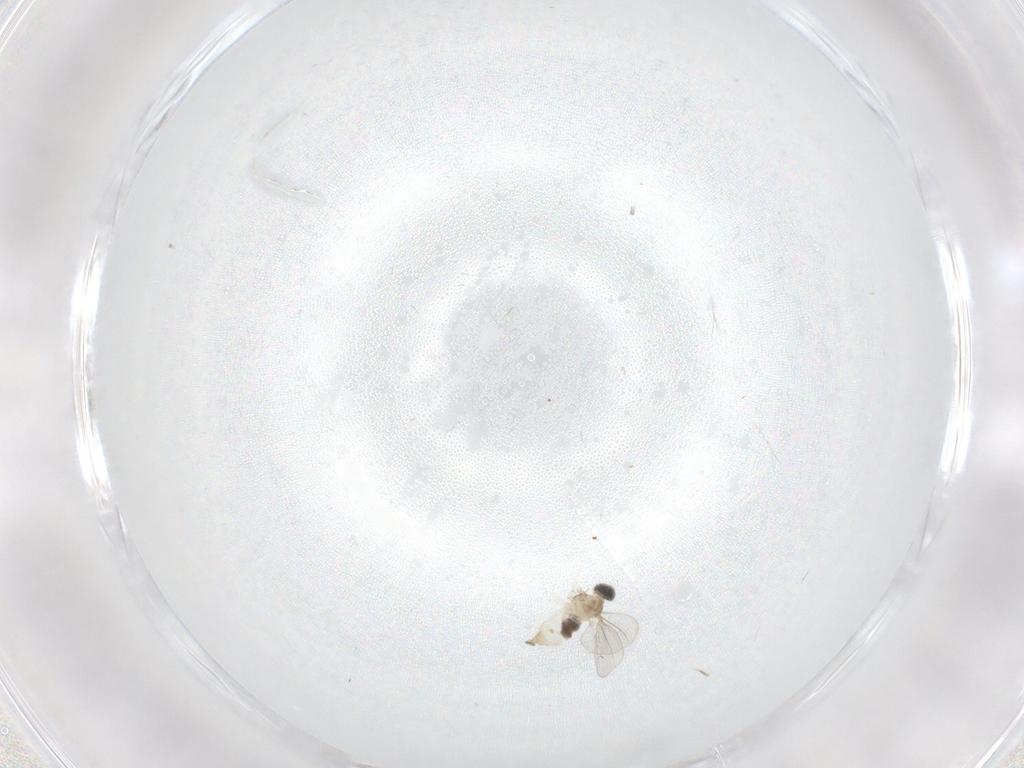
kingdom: Animalia
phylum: Arthropoda
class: Insecta
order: Diptera
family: Cecidomyiidae
